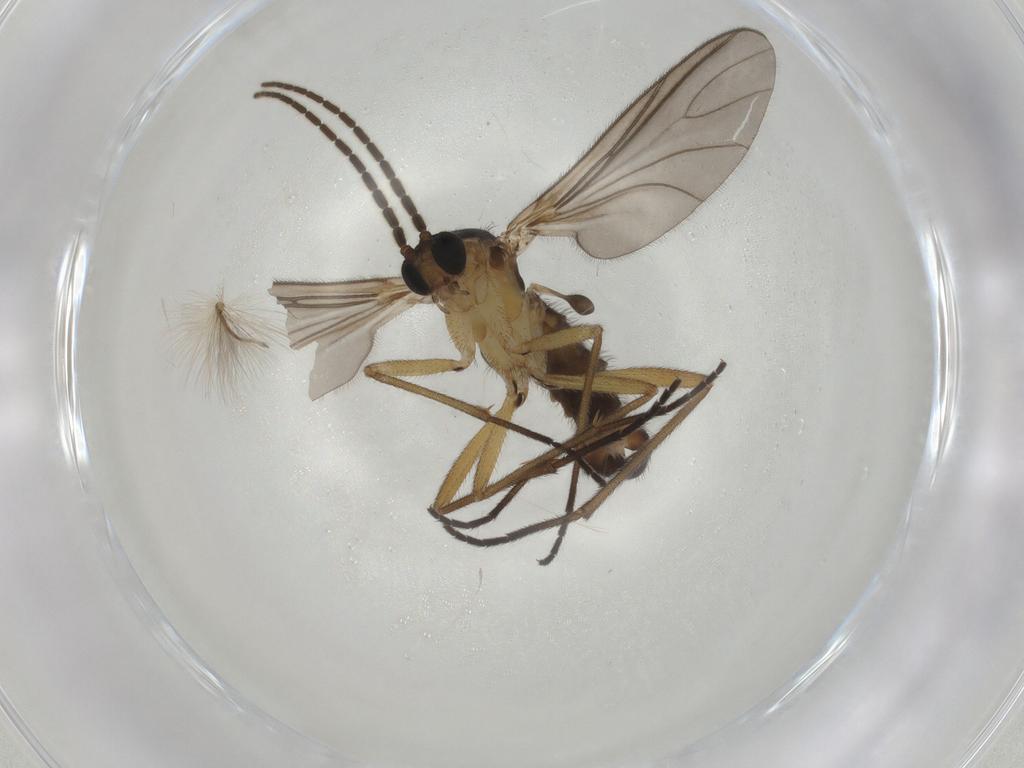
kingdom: Animalia
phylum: Arthropoda
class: Insecta
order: Diptera
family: Sciaridae
